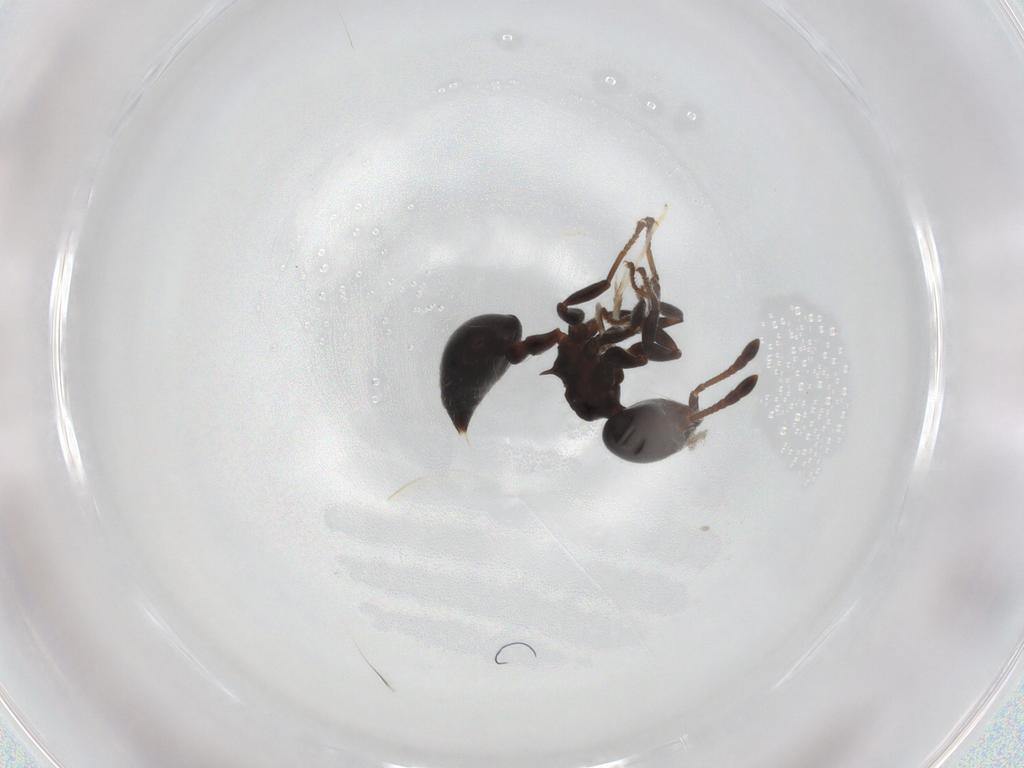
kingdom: Animalia
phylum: Arthropoda
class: Insecta
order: Hymenoptera
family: Formicidae
